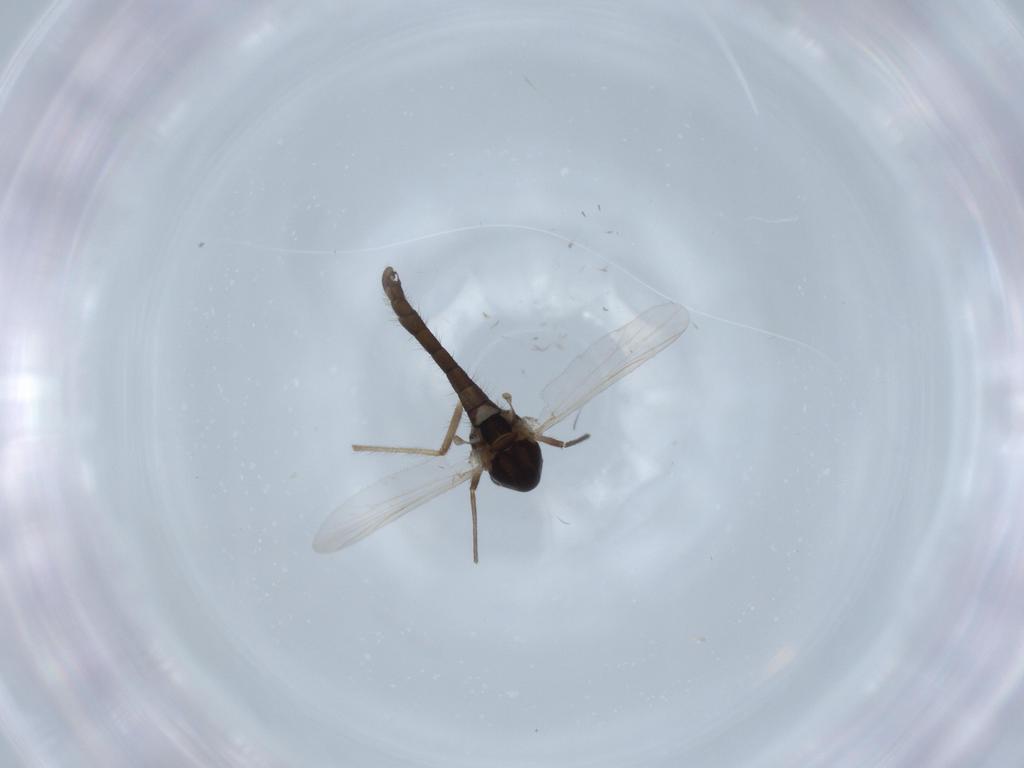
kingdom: Animalia
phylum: Arthropoda
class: Insecta
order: Diptera
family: Chironomidae
